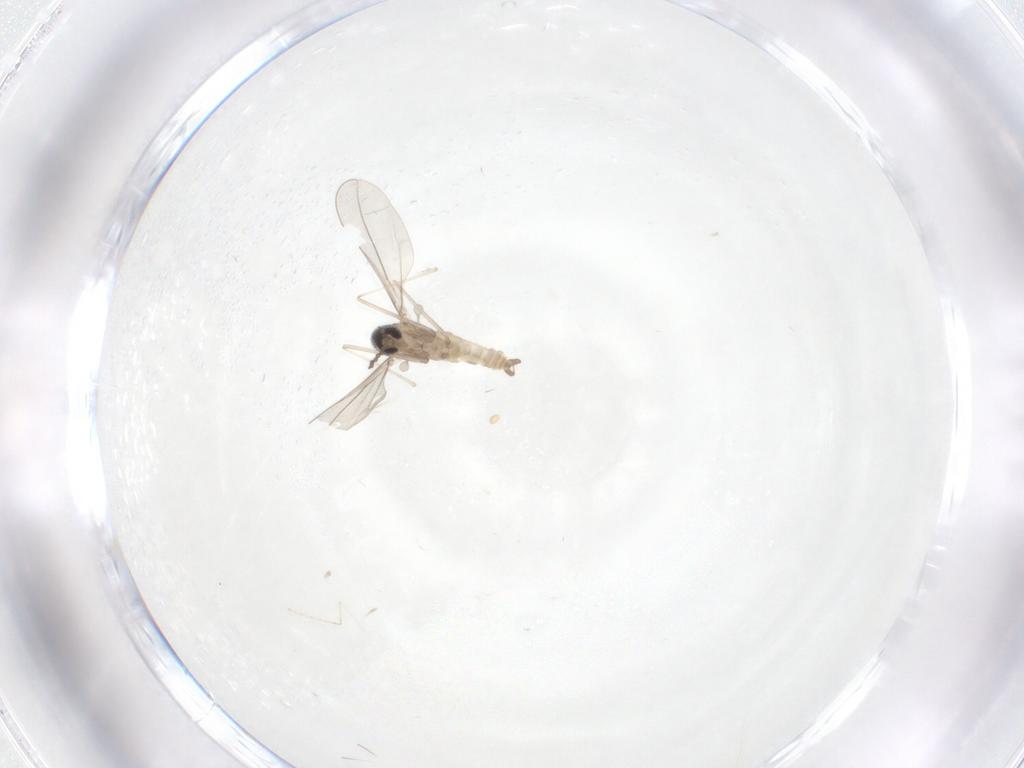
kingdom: Animalia
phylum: Arthropoda
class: Insecta
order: Diptera
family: Cecidomyiidae
